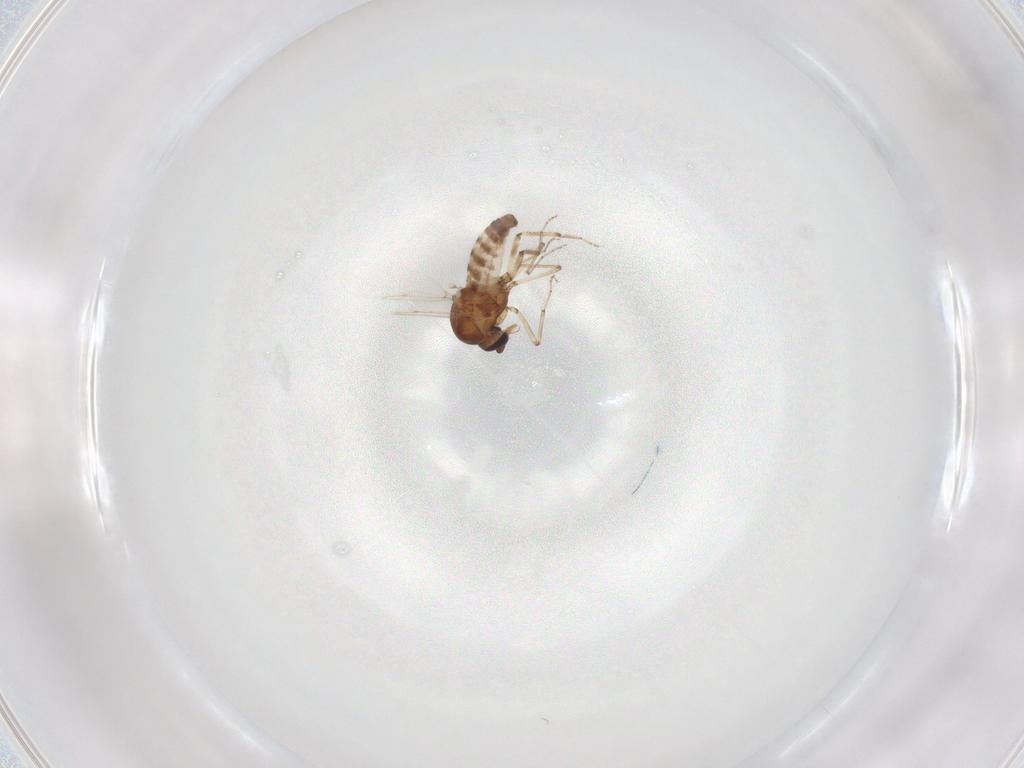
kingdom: Animalia
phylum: Arthropoda
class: Insecta
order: Diptera
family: Ceratopogonidae
